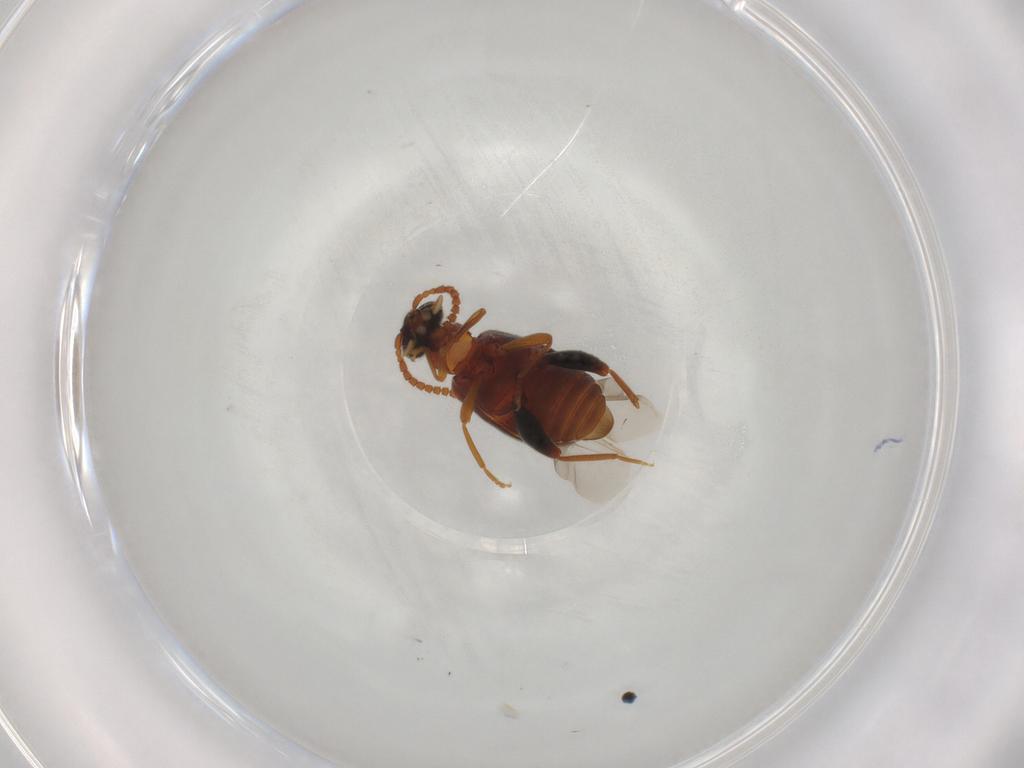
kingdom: Animalia
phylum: Arthropoda
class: Insecta
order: Coleoptera
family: Aderidae
